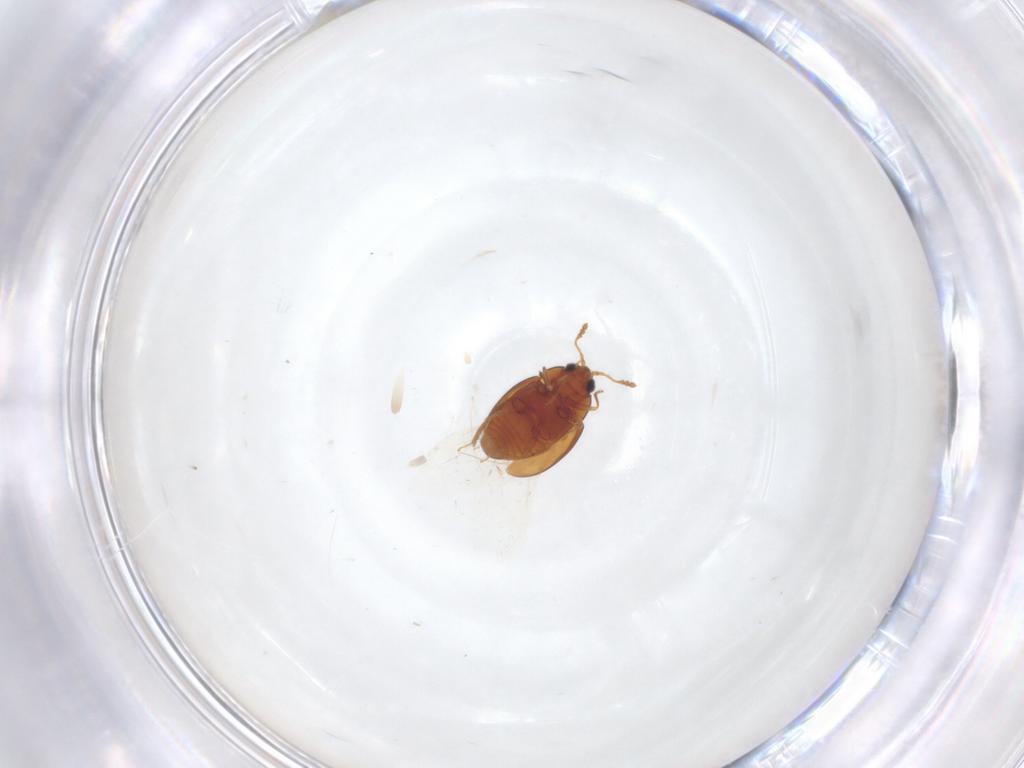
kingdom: Animalia
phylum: Arthropoda
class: Insecta
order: Coleoptera
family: Cryptophagidae
